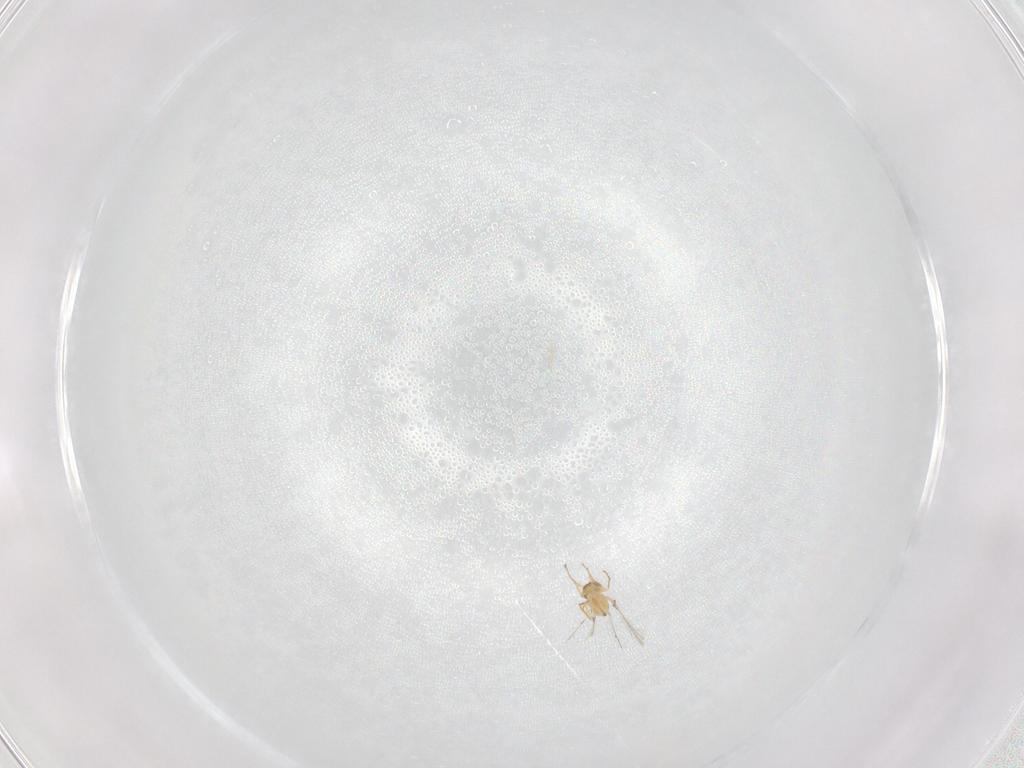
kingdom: Animalia
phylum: Arthropoda
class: Insecta
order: Hymenoptera
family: Mymaridae
